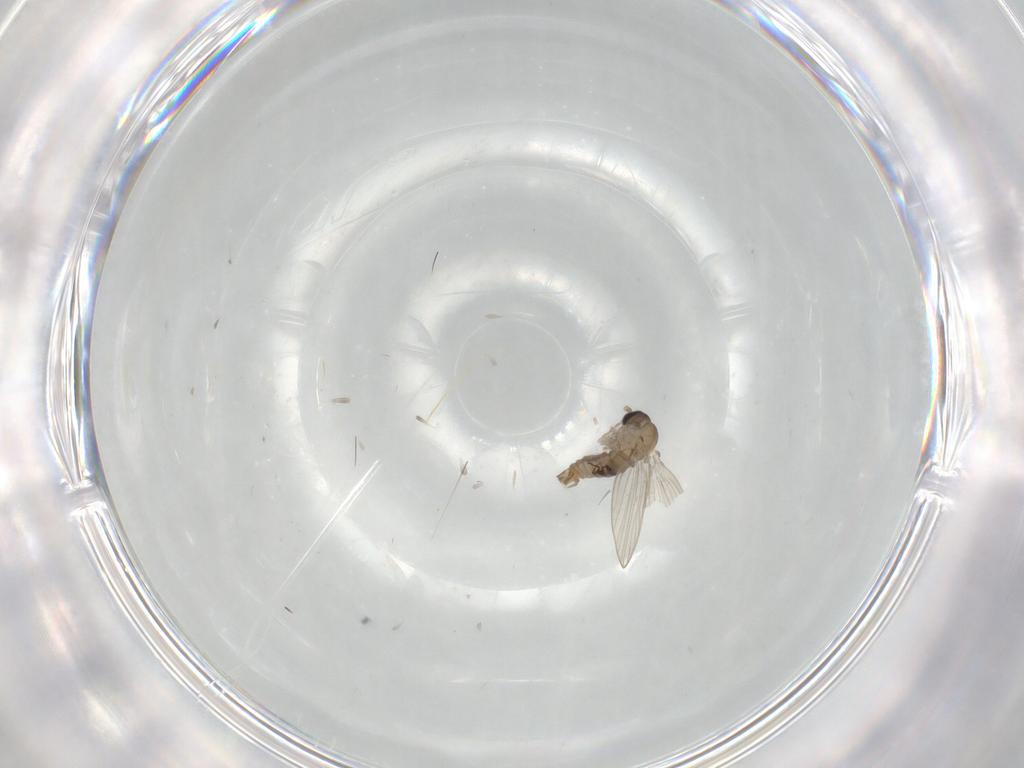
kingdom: Animalia
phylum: Arthropoda
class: Insecta
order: Diptera
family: Psychodidae
